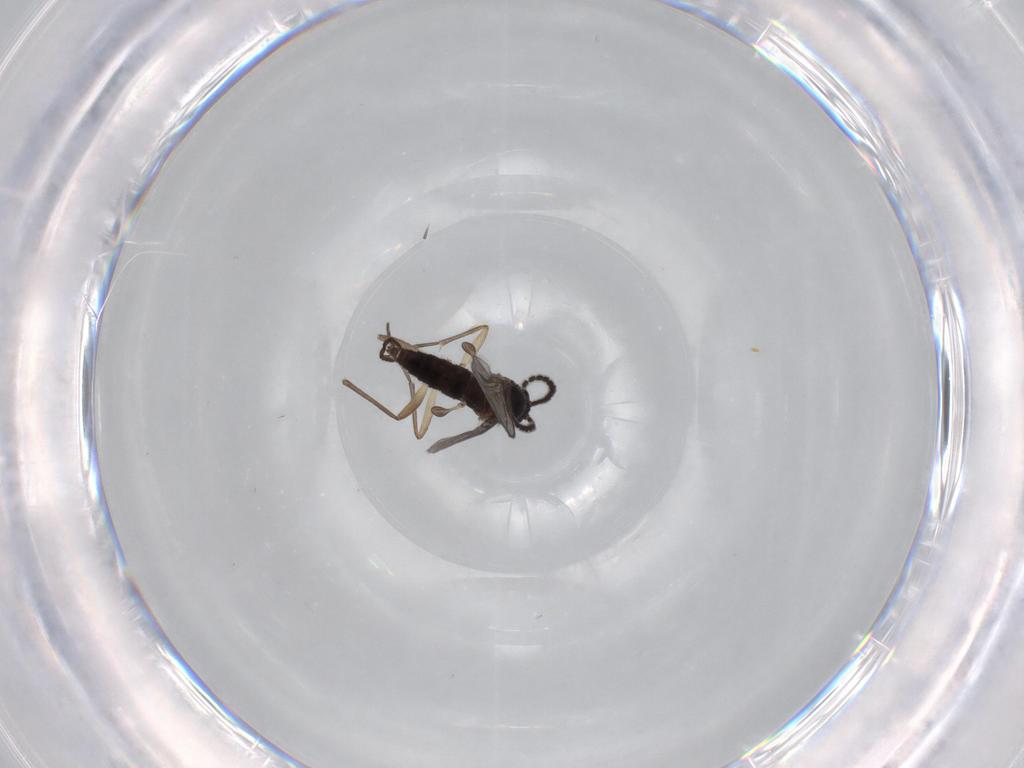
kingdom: Animalia
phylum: Arthropoda
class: Insecta
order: Diptera
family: Sciaridae
